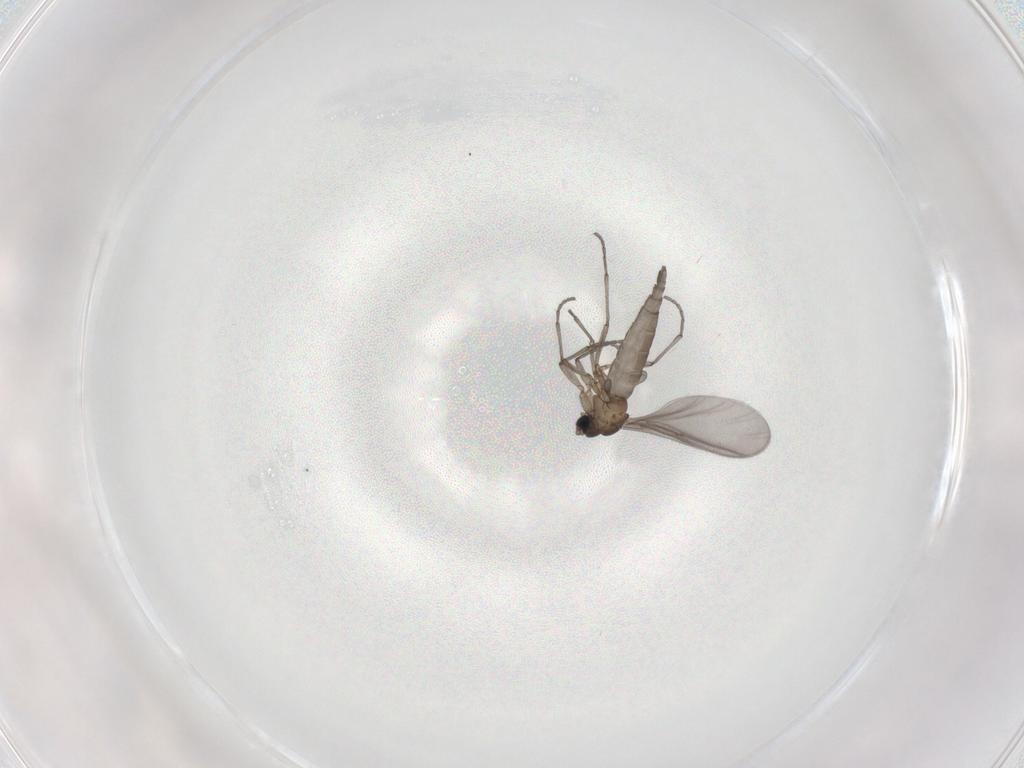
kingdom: Animalia
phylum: Arthropoda
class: Insecta
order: Diptera
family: Sciaridae
